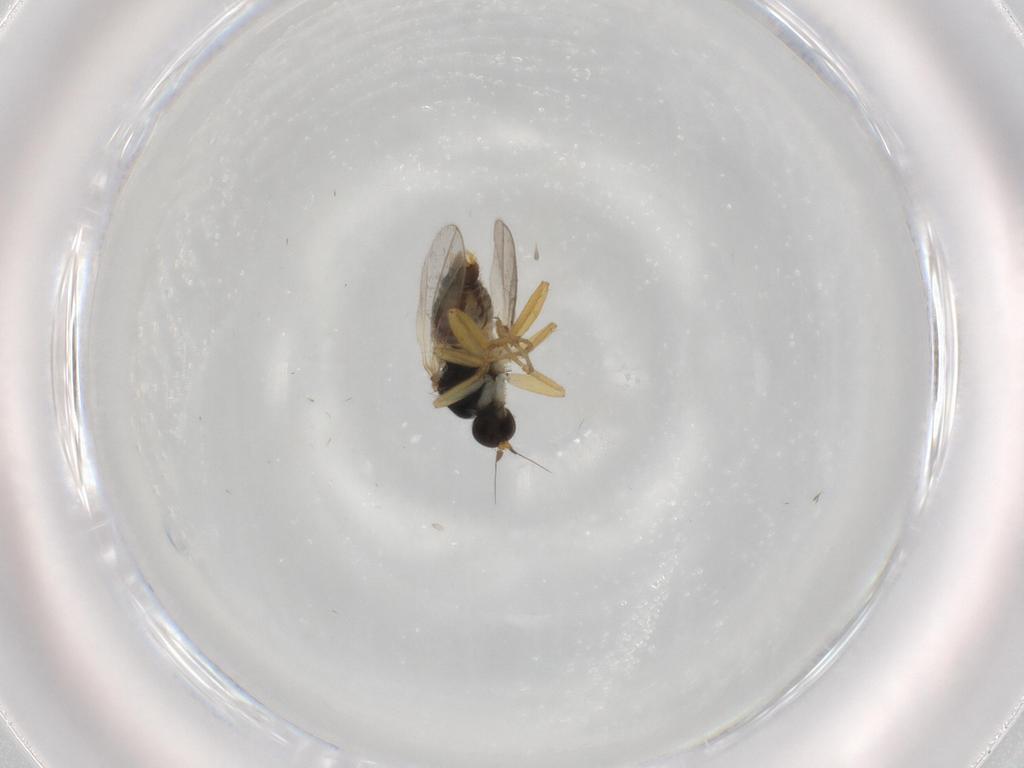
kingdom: Animalia
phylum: Arthropoda
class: Insecta
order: Diptera
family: Hybotidae
